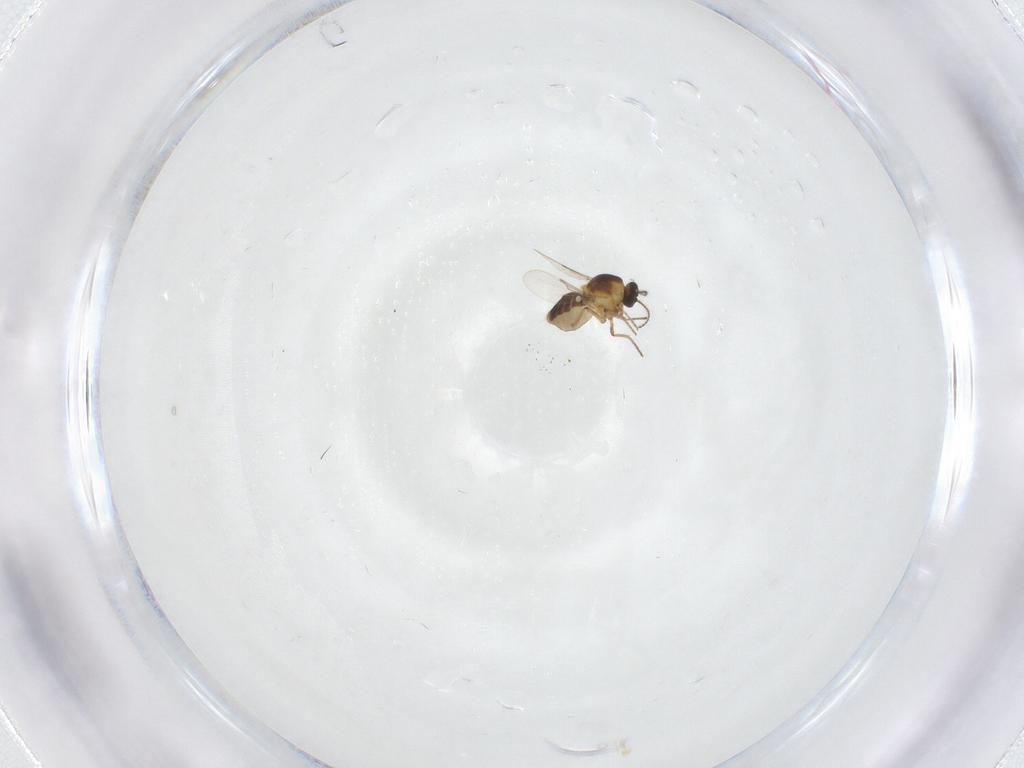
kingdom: Animalia
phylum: Arthropoda
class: Insecta
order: Diptera
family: Ceratopogonidae
